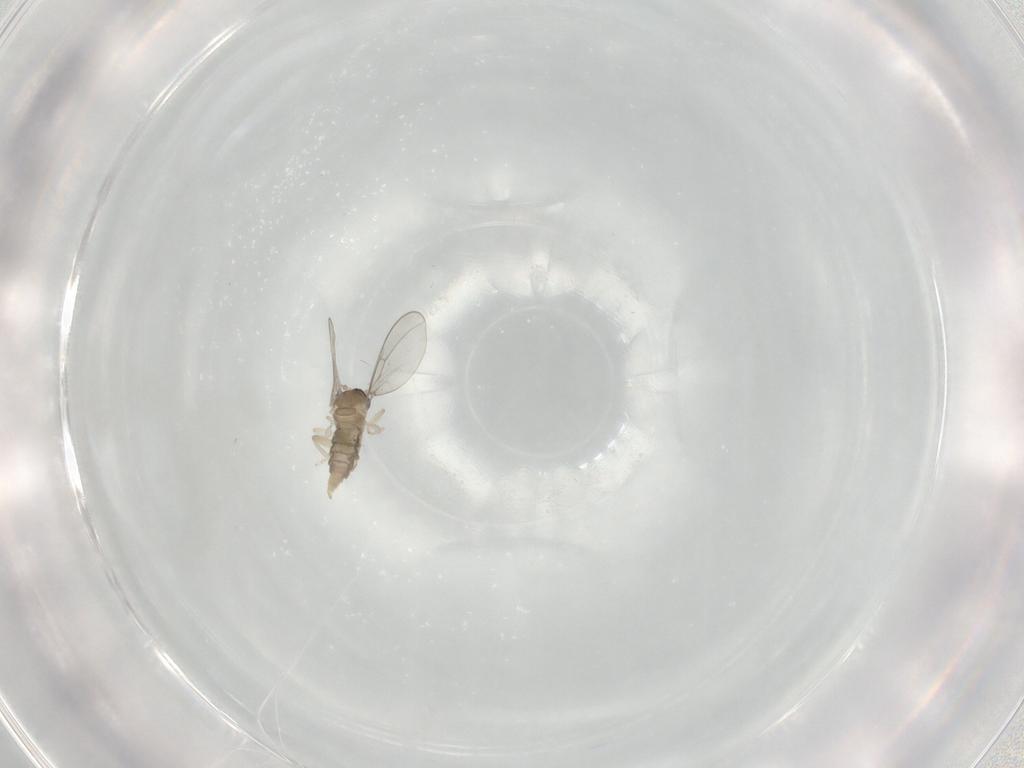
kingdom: Animalia
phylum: Arthropoda
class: Insecta
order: Diptera
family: Cecidomyiidae
